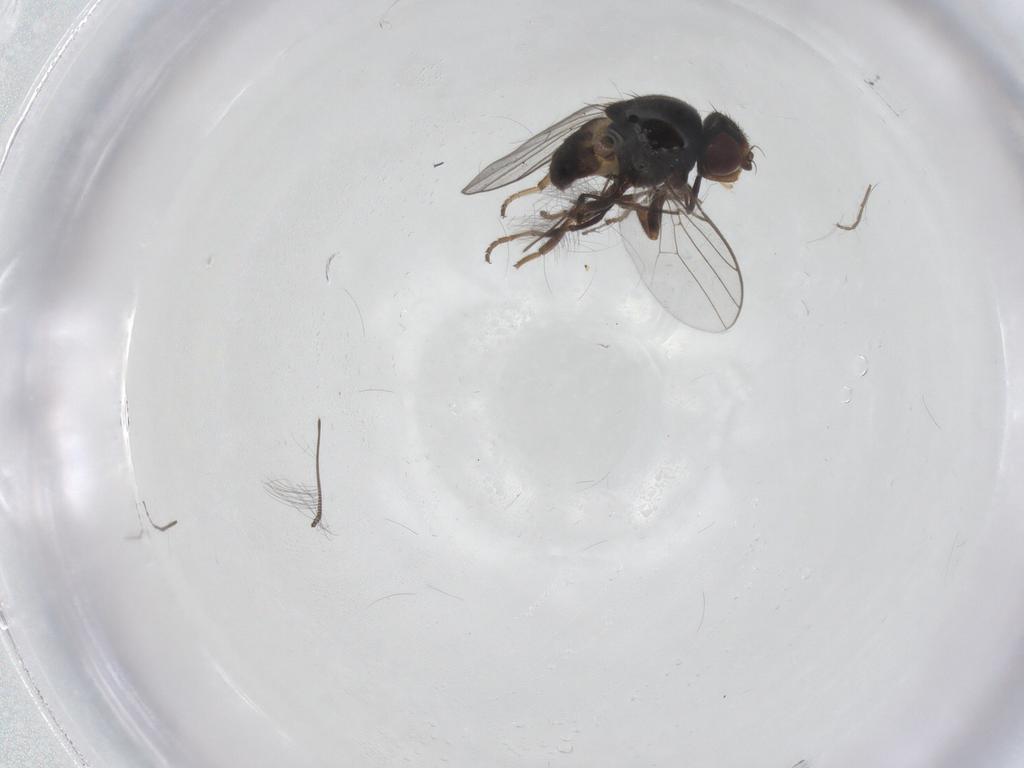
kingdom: Animalia
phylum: Arthropoda
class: Insecta
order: Diptera
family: Chloropidae
